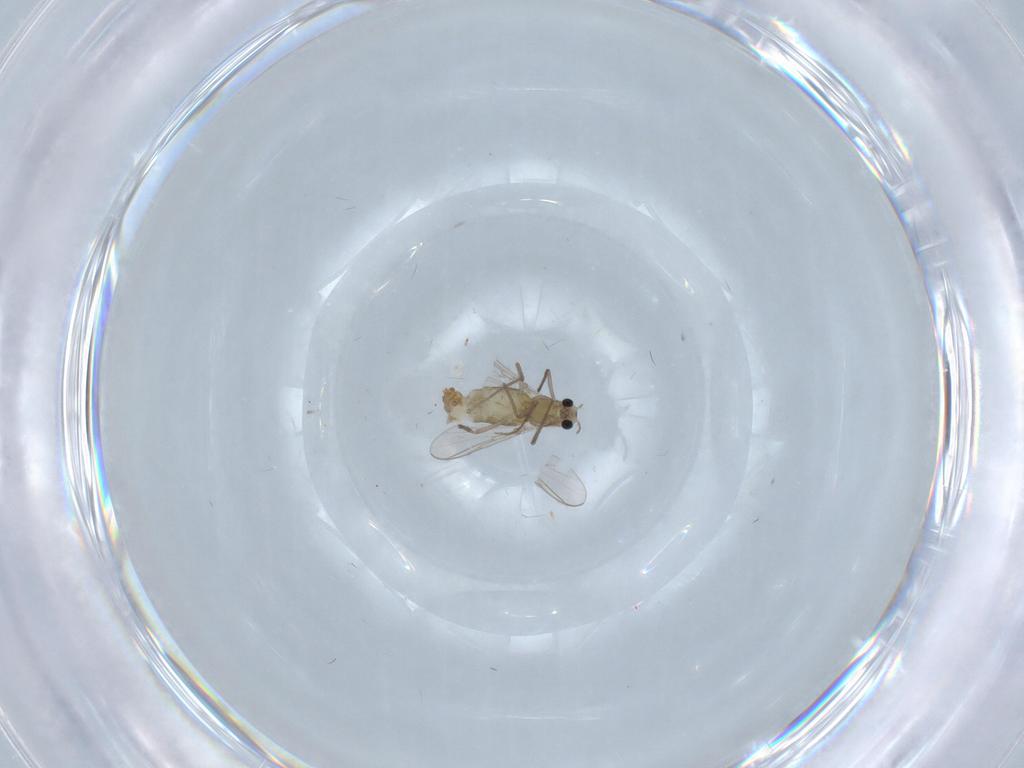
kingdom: Animalia
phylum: Arthropoda
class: Insecta
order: Diptera
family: Chironomidae
